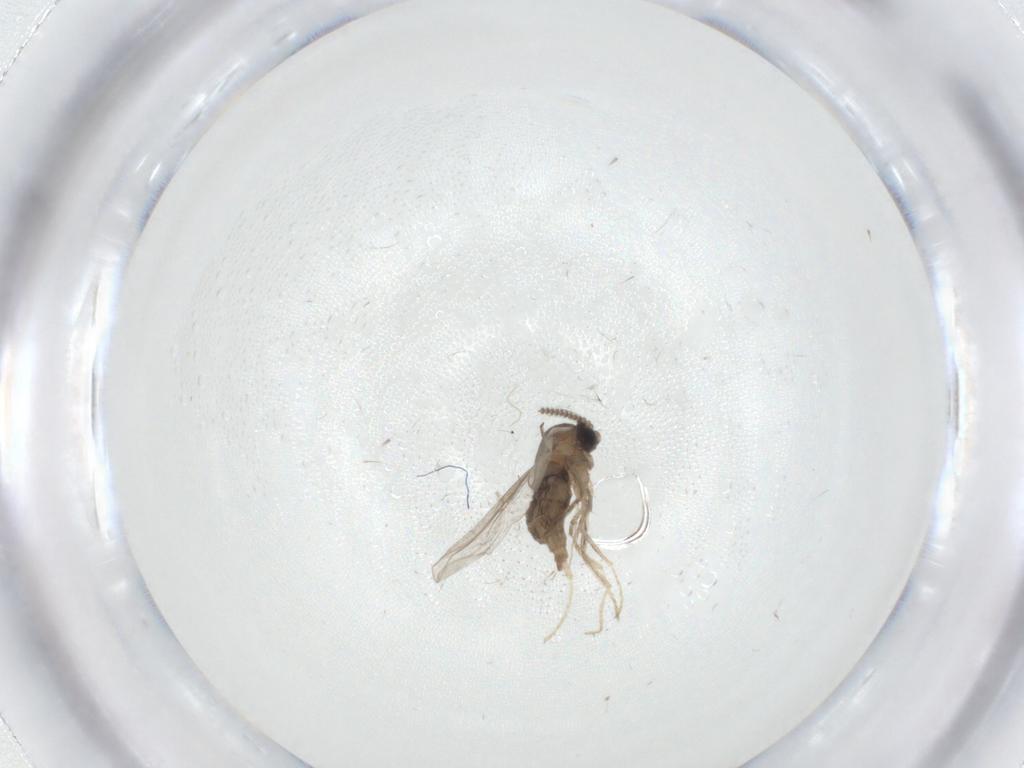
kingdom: Animalia
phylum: Arthropoda
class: Insecta
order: Diptera
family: Cecidomyiidae
